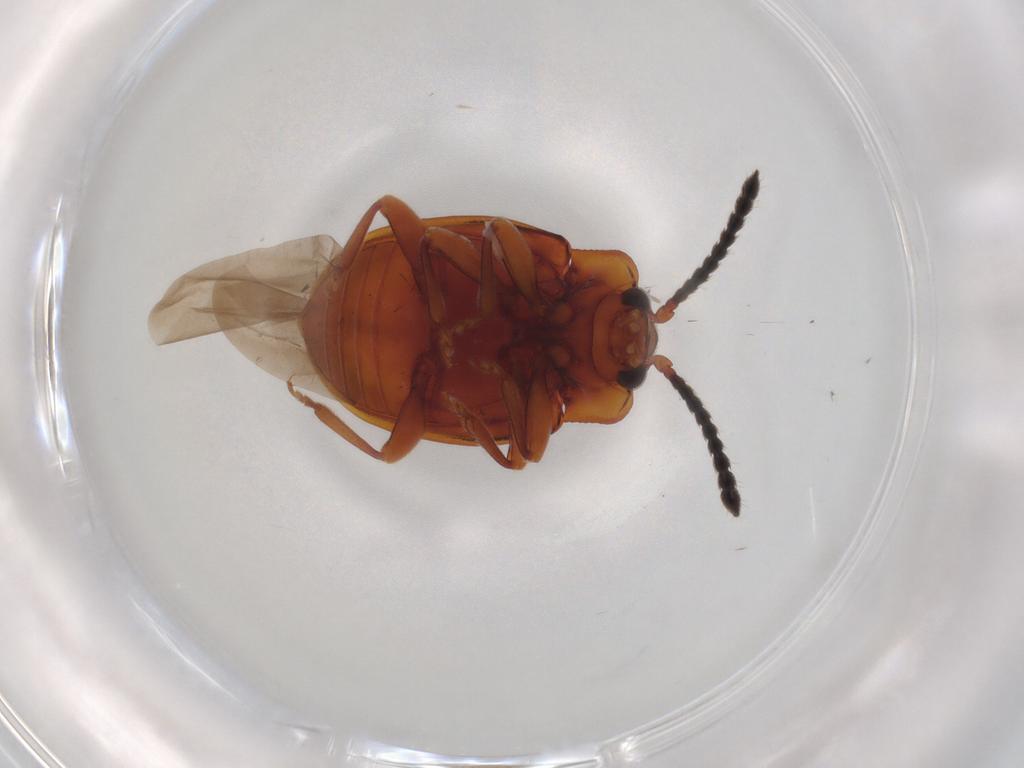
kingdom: Animalia
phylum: Arthropoda
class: Insecta
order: Coleoptera
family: Endomychidae
